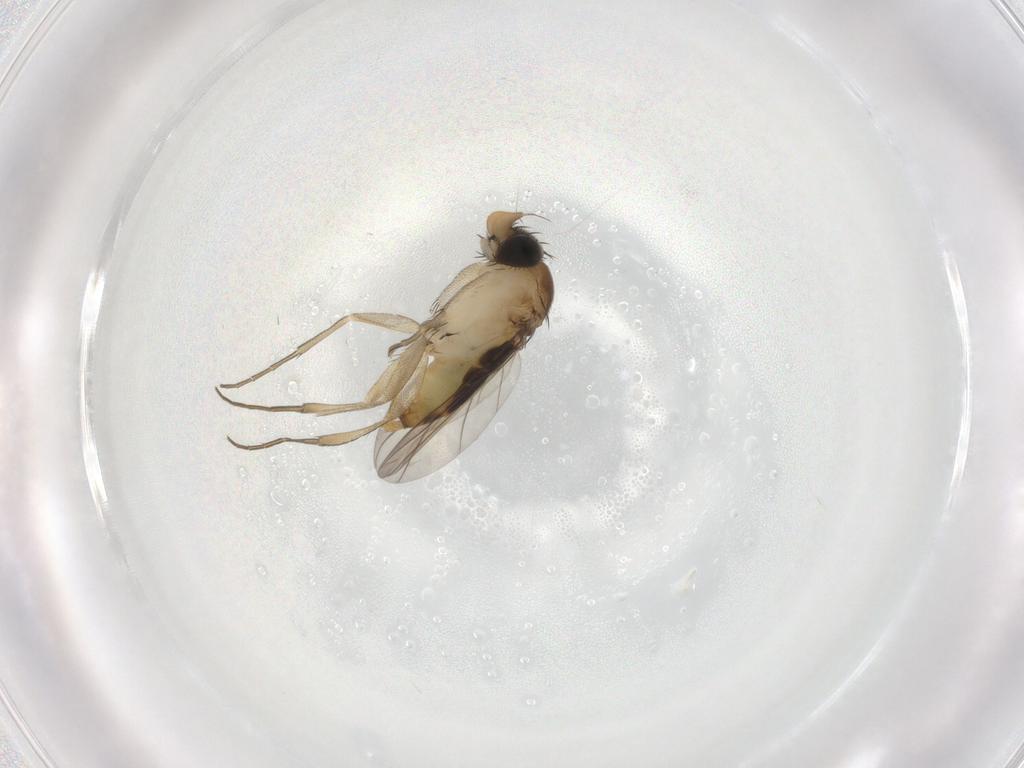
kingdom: Animalia
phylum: Arthropoda
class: Insecta
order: Diptera
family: Phoridae
